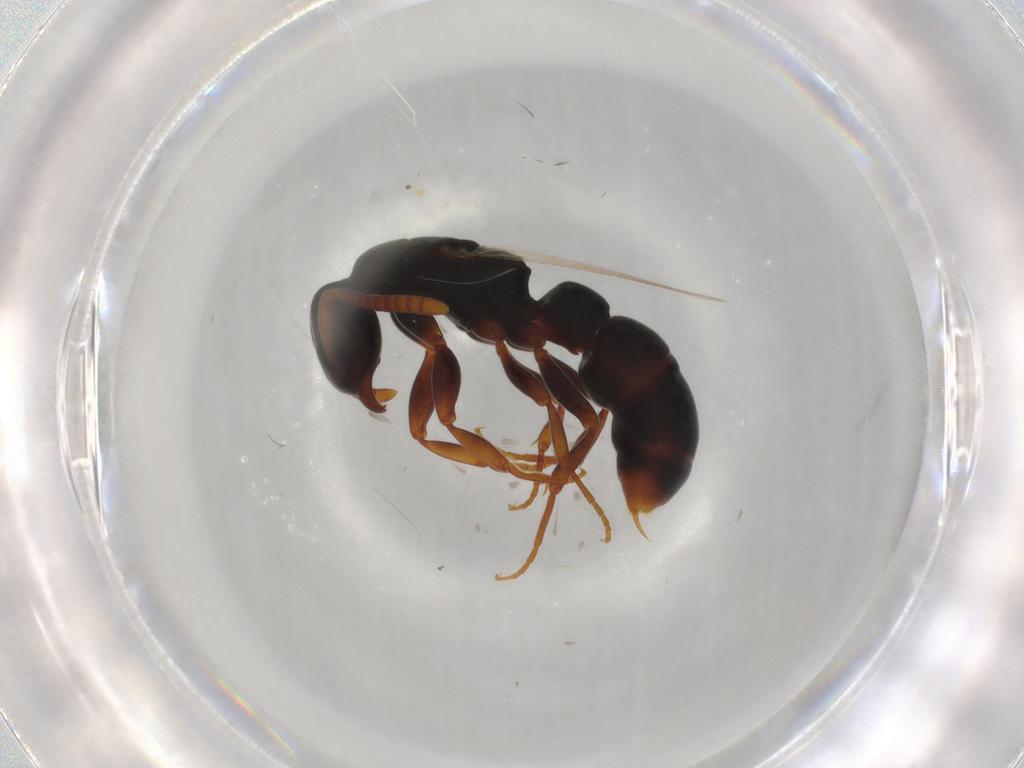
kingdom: Animalia
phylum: Arthropoda
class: Insecta
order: Hymenoptera
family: Formicidae
